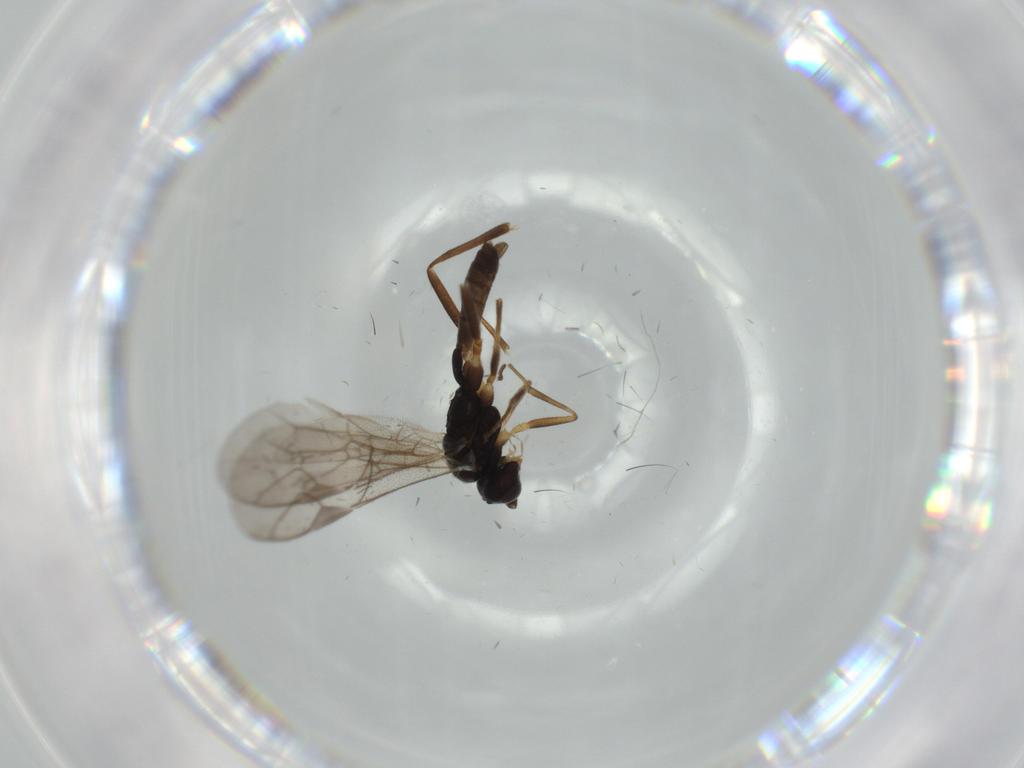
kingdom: Animalia
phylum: Arthropoda
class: Insecta
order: Hymenoptera
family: Ichneumonidae
